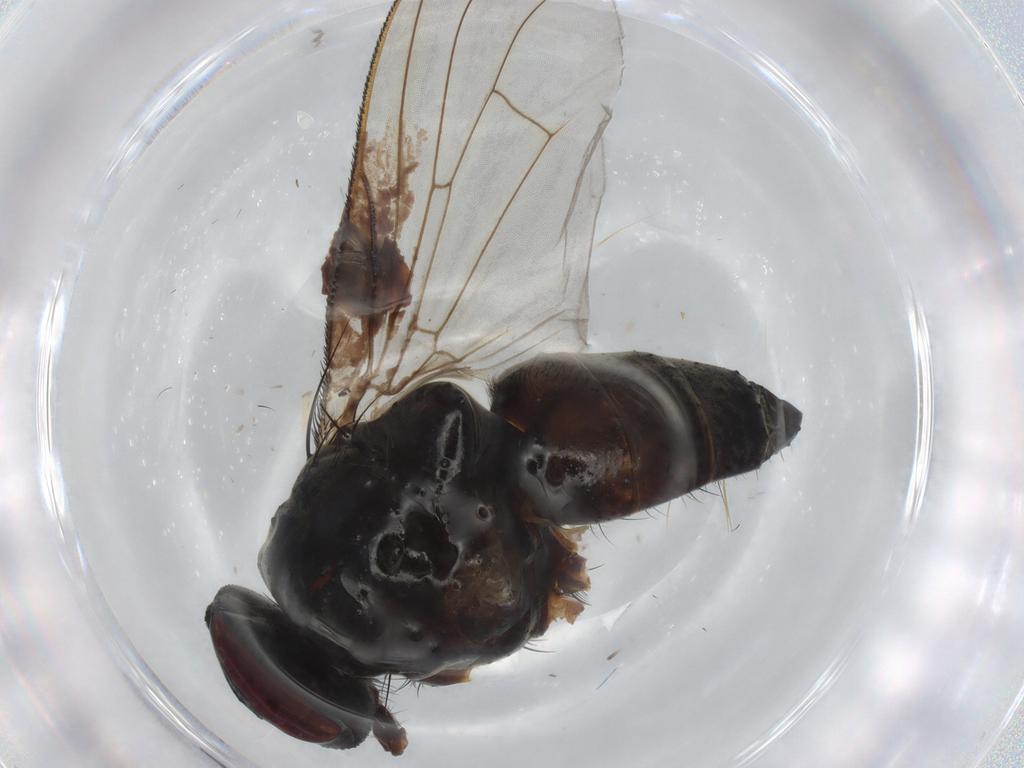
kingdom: Animalia
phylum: Arthropoda
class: Insecta
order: Diptera
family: Muscidae
